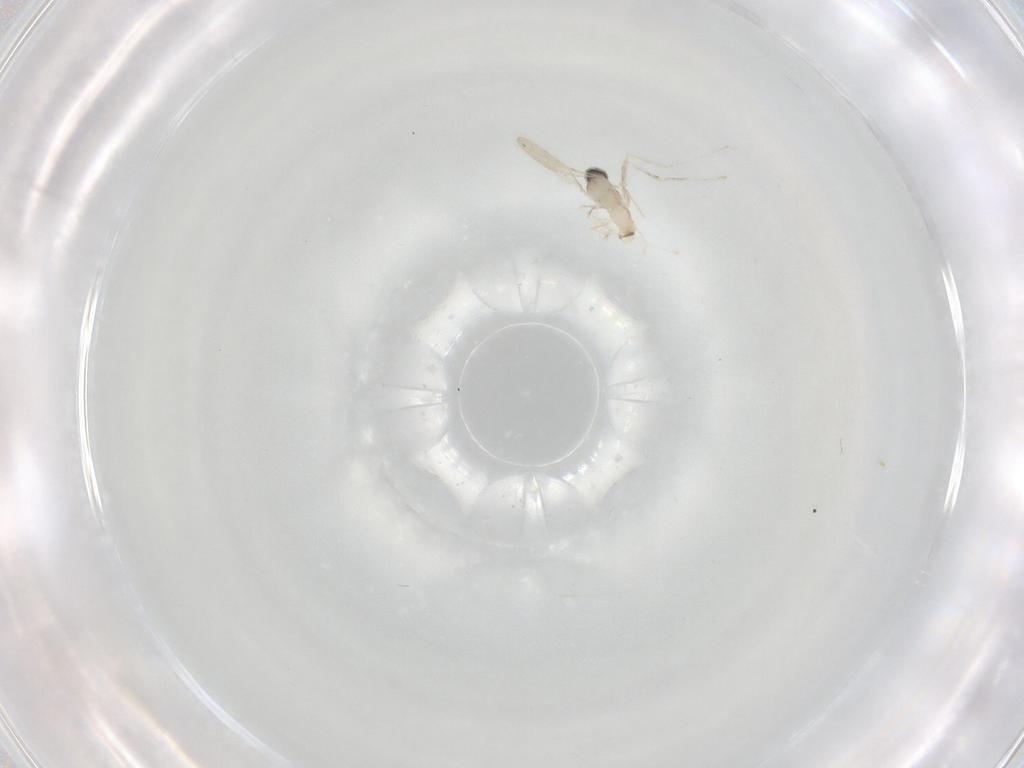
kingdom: Animalia
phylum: Arthropoda
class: Insecta
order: Diptera
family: Cecidomyiidae
